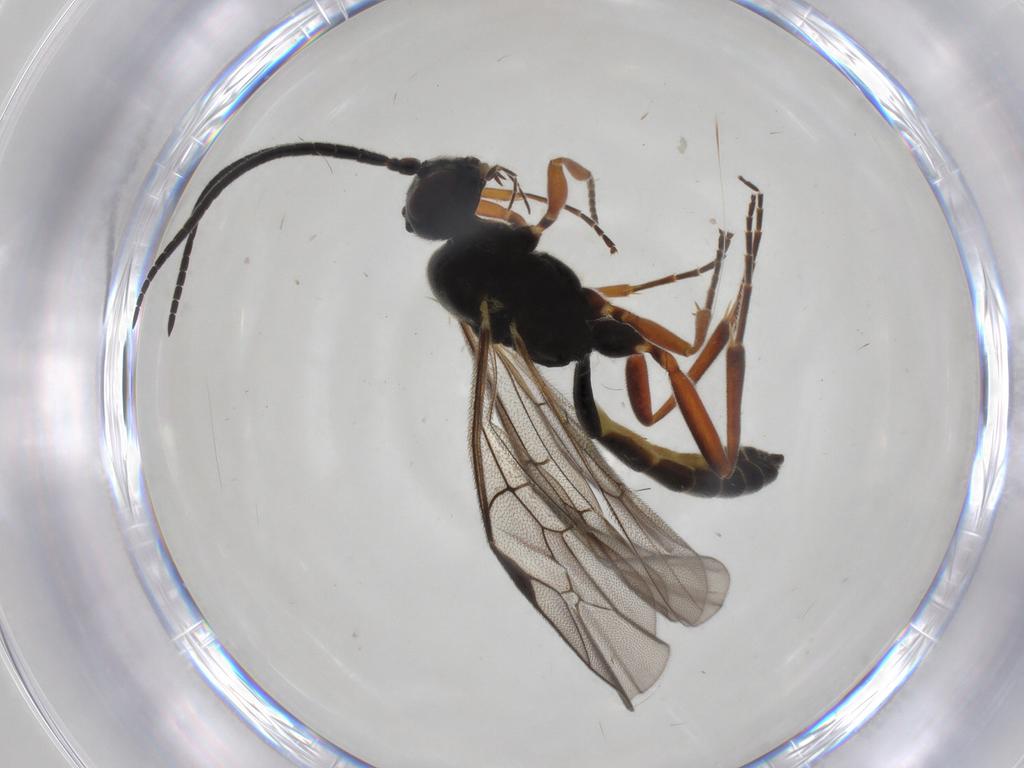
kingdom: Animalia
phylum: Arthropoda
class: Insecta
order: Hymenoptera
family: Ichneumonidae
